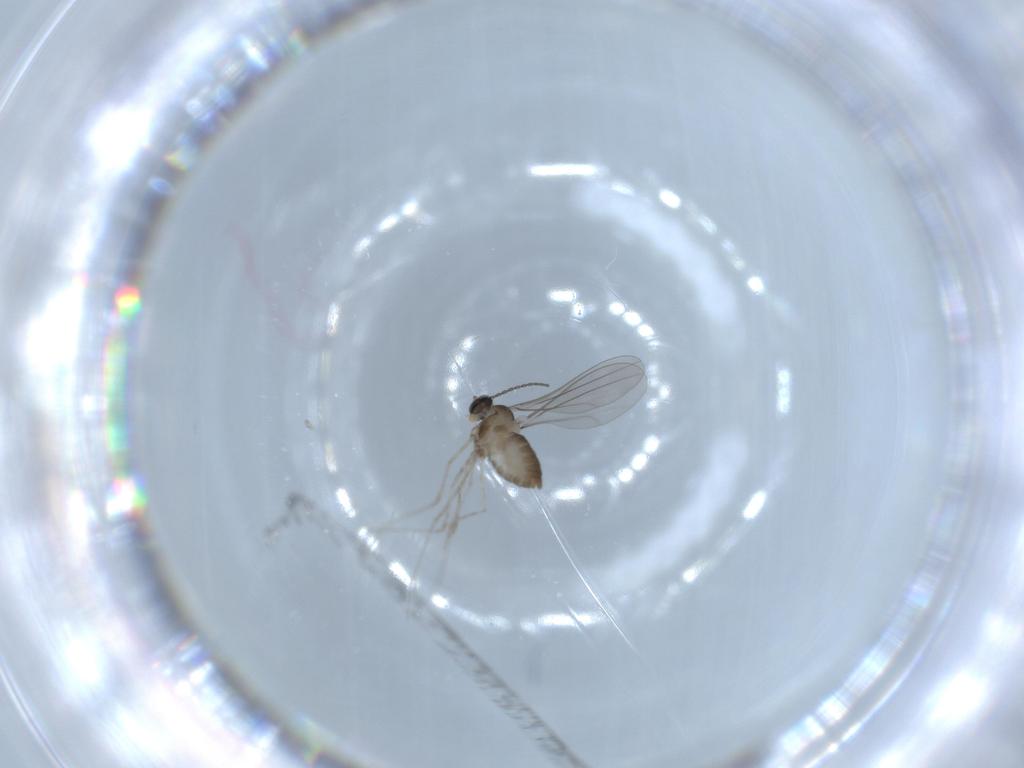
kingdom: Animalia
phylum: Arthropoda
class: Insecta
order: Diptera
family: Cecidomyiidae
